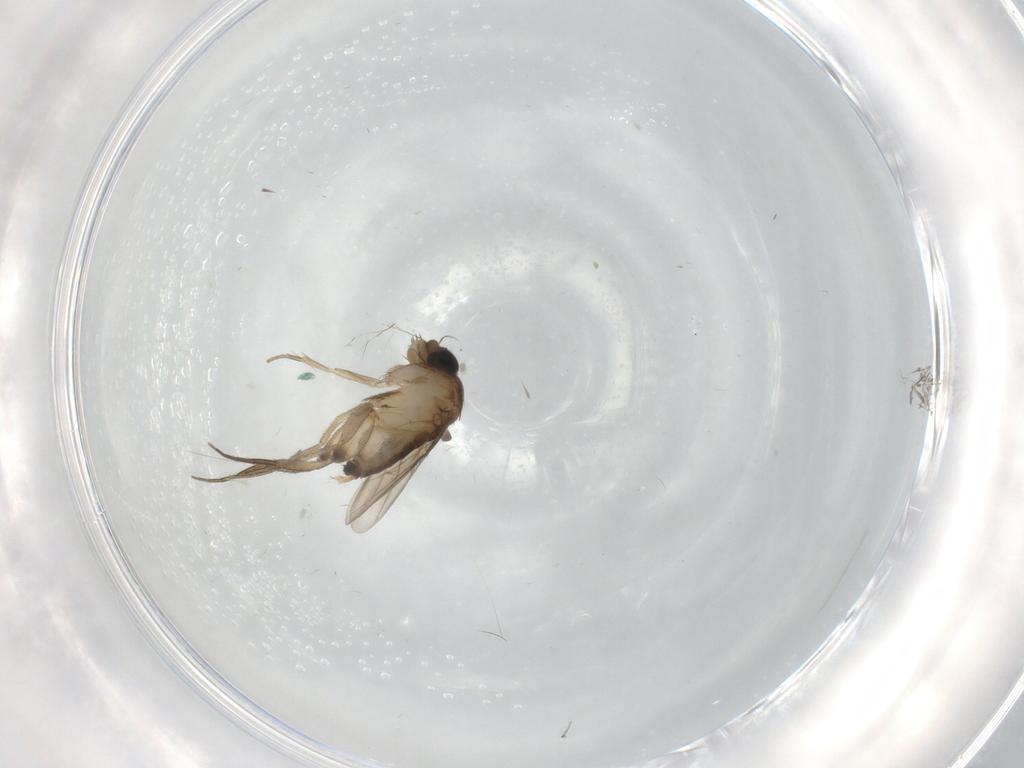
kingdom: Animalia
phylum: Arthropoda
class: Insecta
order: Diptera
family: Phoridae
